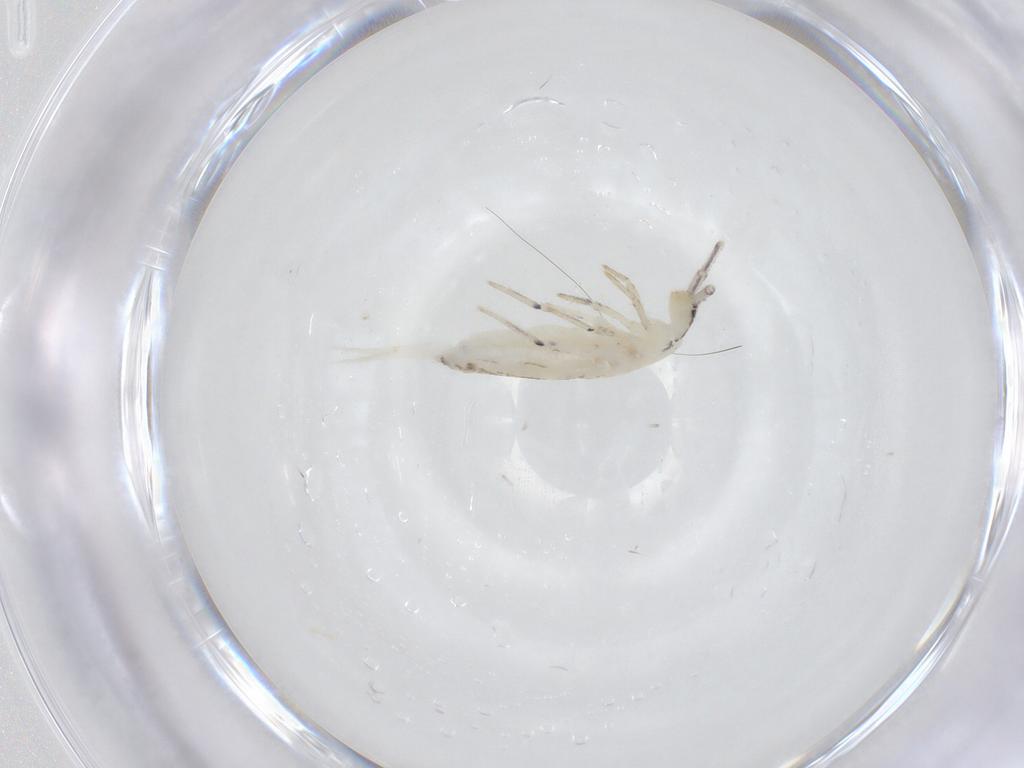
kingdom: Animalia
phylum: Arthropoda
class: Collembola
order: Entomobryomorpha
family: Entomobryidae
